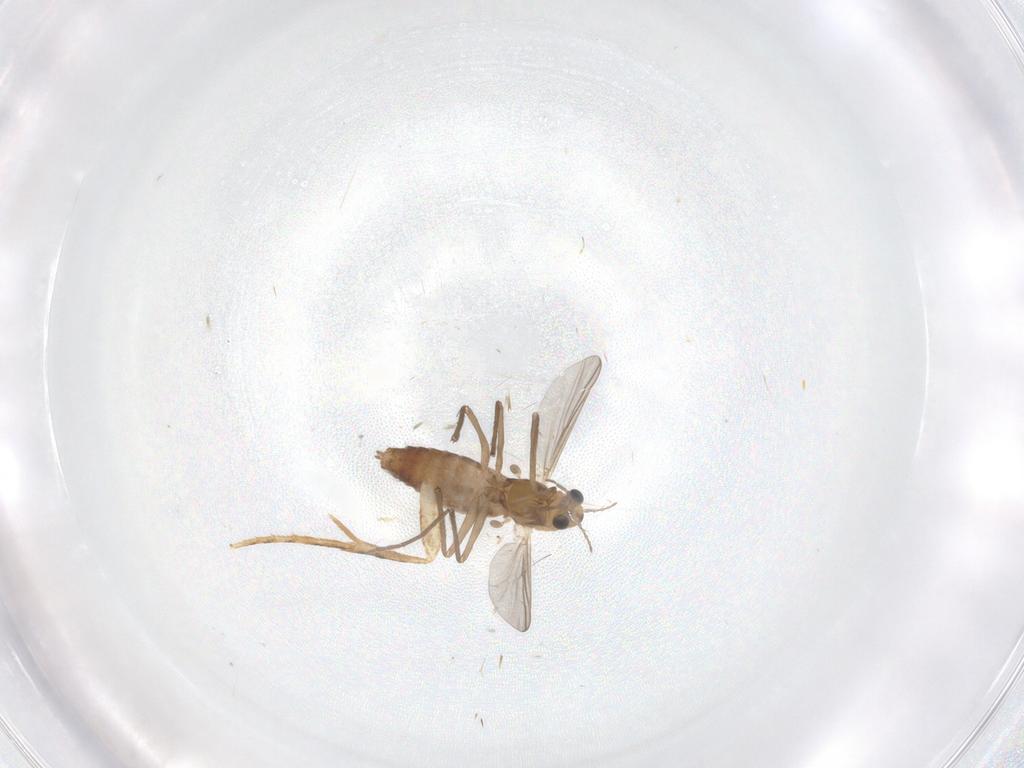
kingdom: Animalia
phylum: Arthropoda
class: Insecta
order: Diptera
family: Chironomidae
